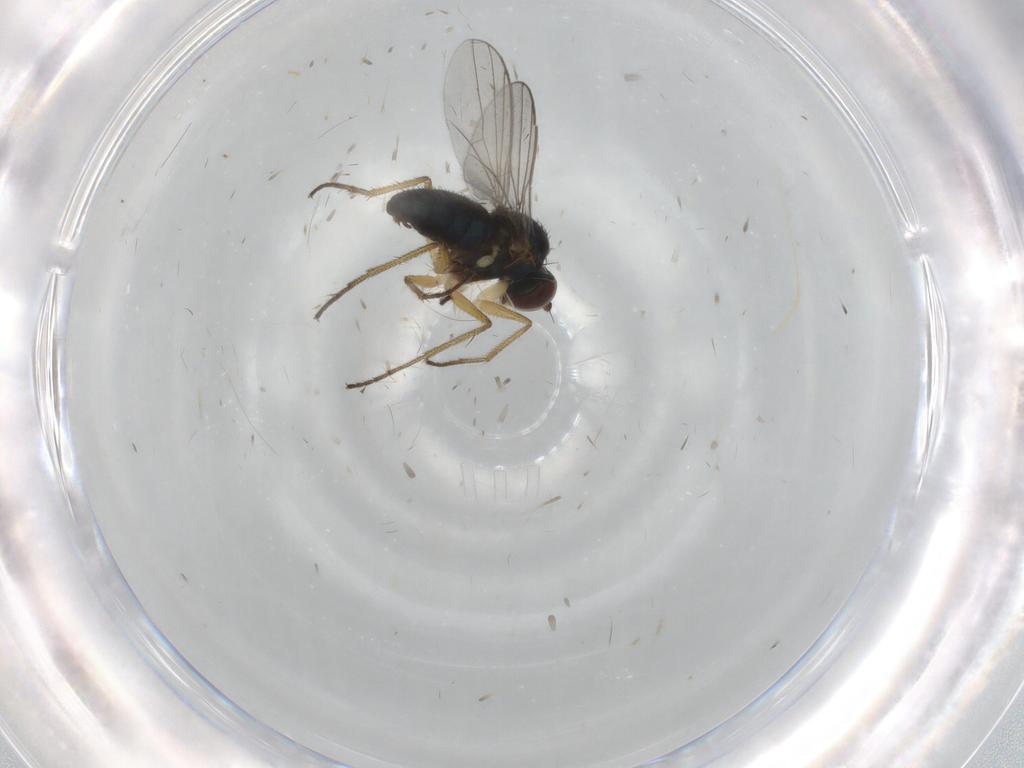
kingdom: Animalia
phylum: Arthropoda
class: Insecta
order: Diptera
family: Dolichopodidae
